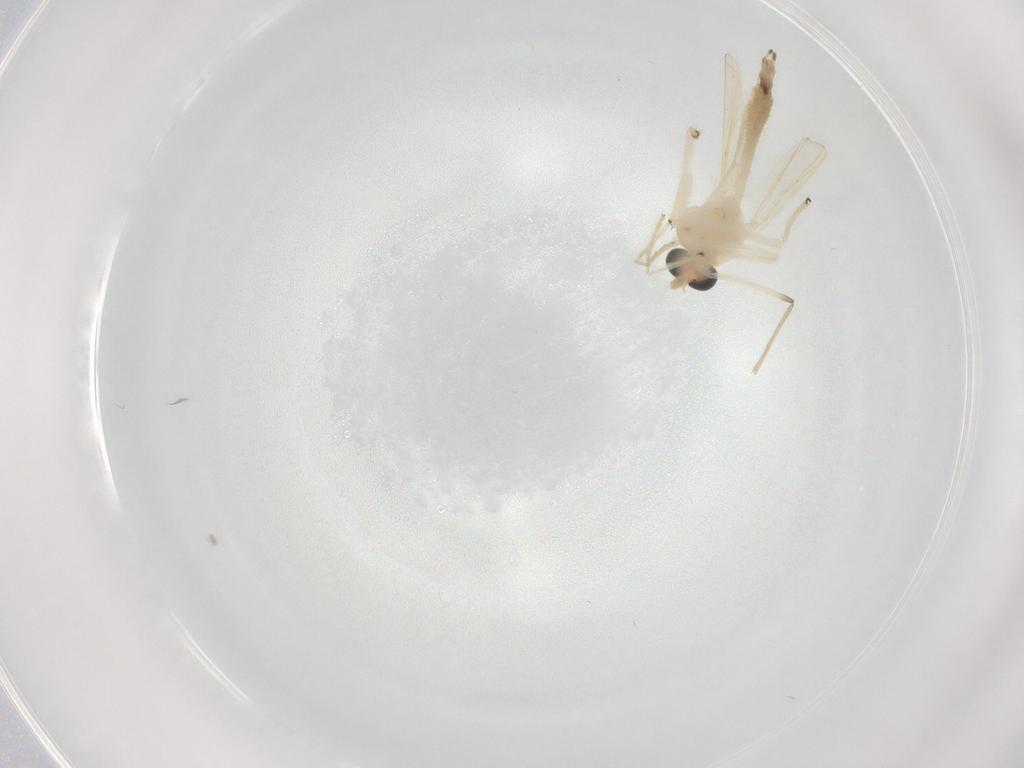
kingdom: Animalia
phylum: Arthropoda
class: Insecta
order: Diptera
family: Chironomidae
